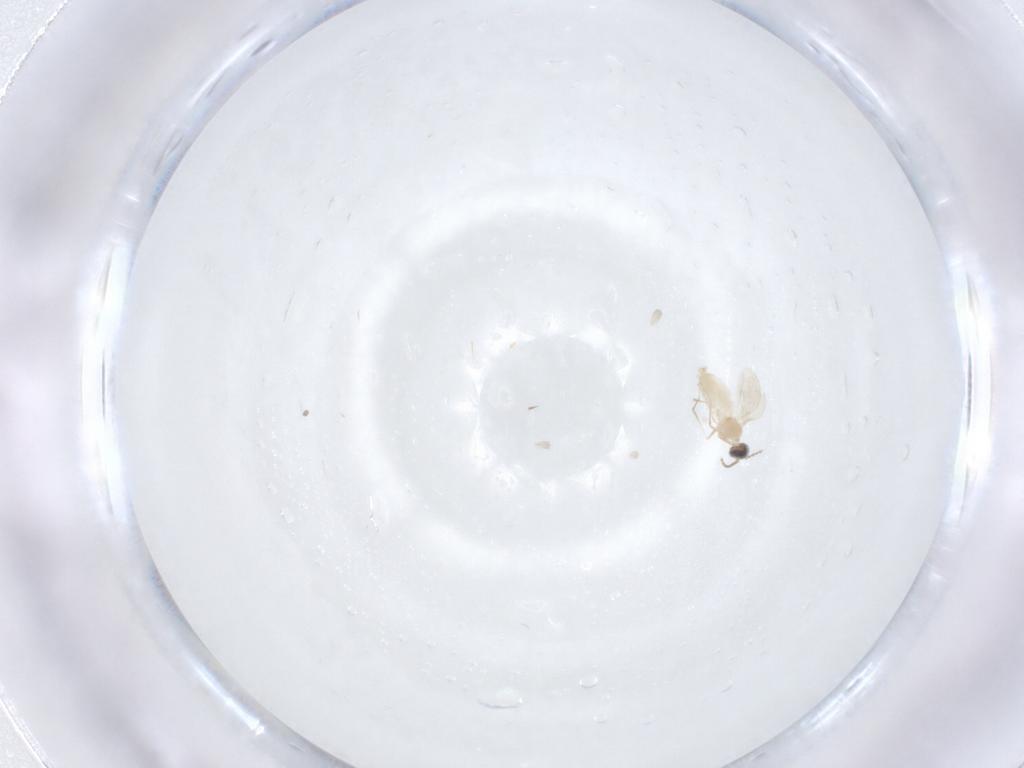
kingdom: Animalia
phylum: Arthropoda
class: Insecta
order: Diptera
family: Cecidomyiidae
